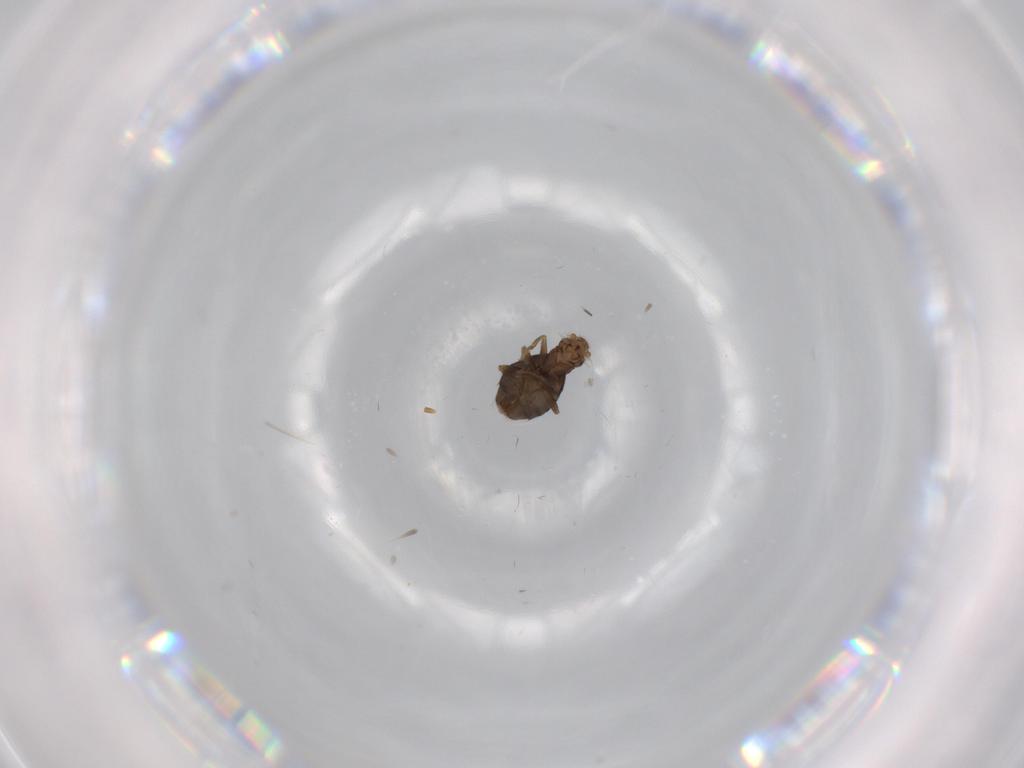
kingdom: Animalia
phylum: Arthropoda
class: Insecta
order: Diptera
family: Phoridae
